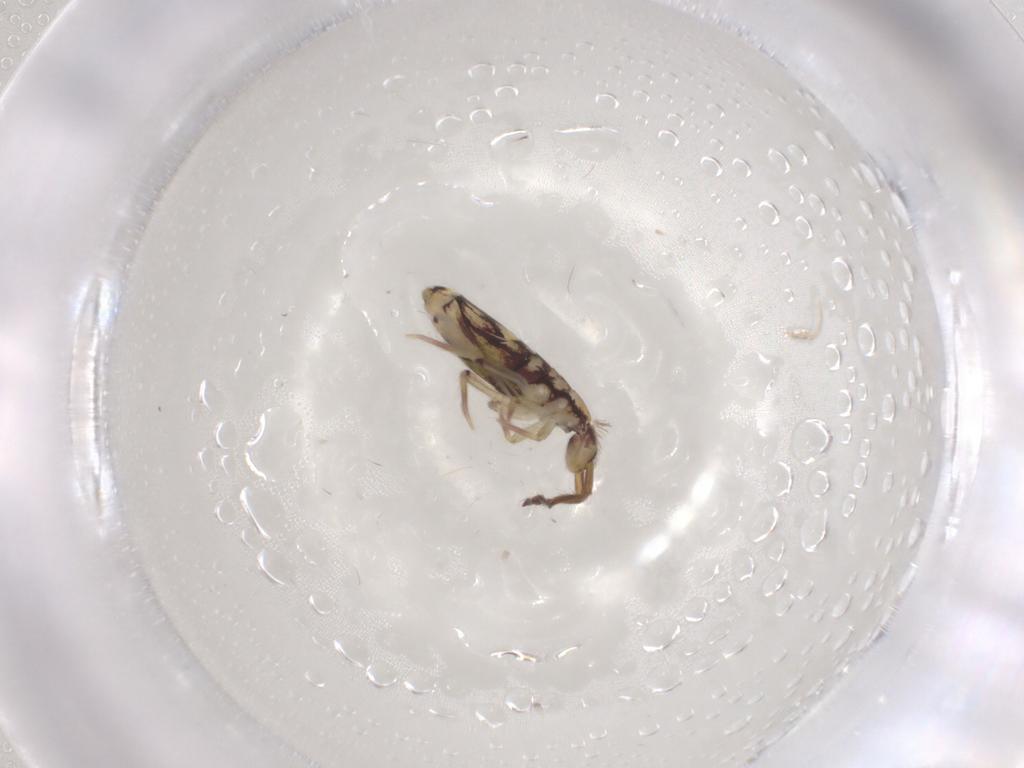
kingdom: Animalia
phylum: Arthropoda
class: Collembola
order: Entomobryomorpha
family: Entomobryidae
